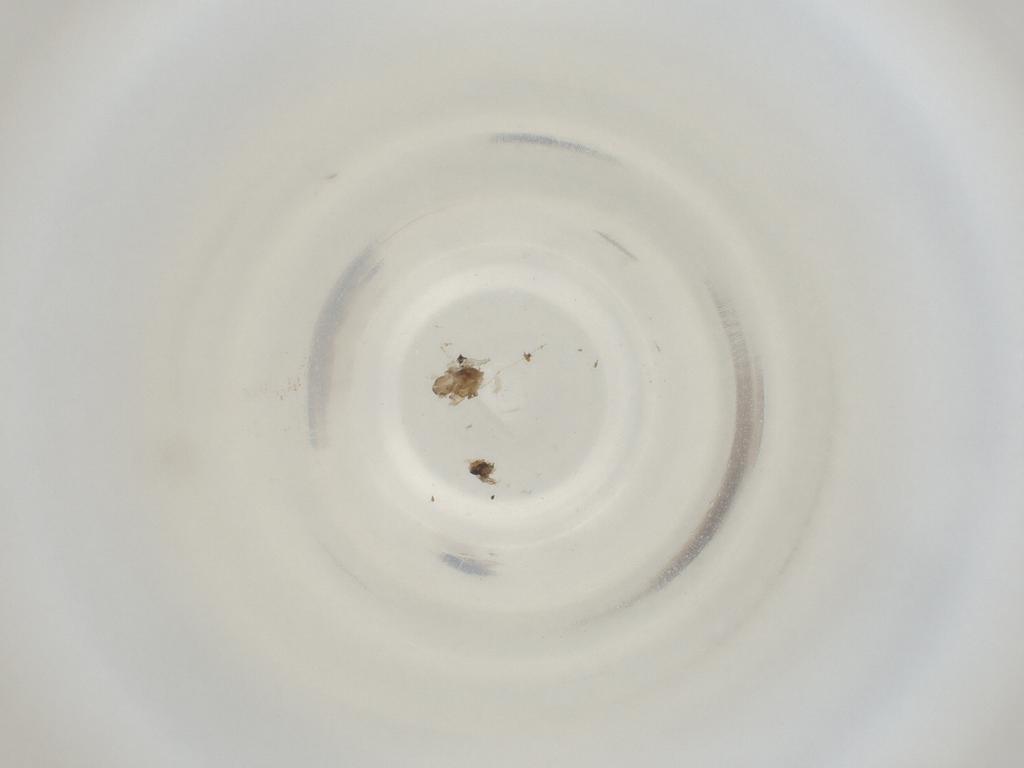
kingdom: Animalia
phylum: Arthropoda
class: Insecta
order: Diptera
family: Cecidomyiidae
